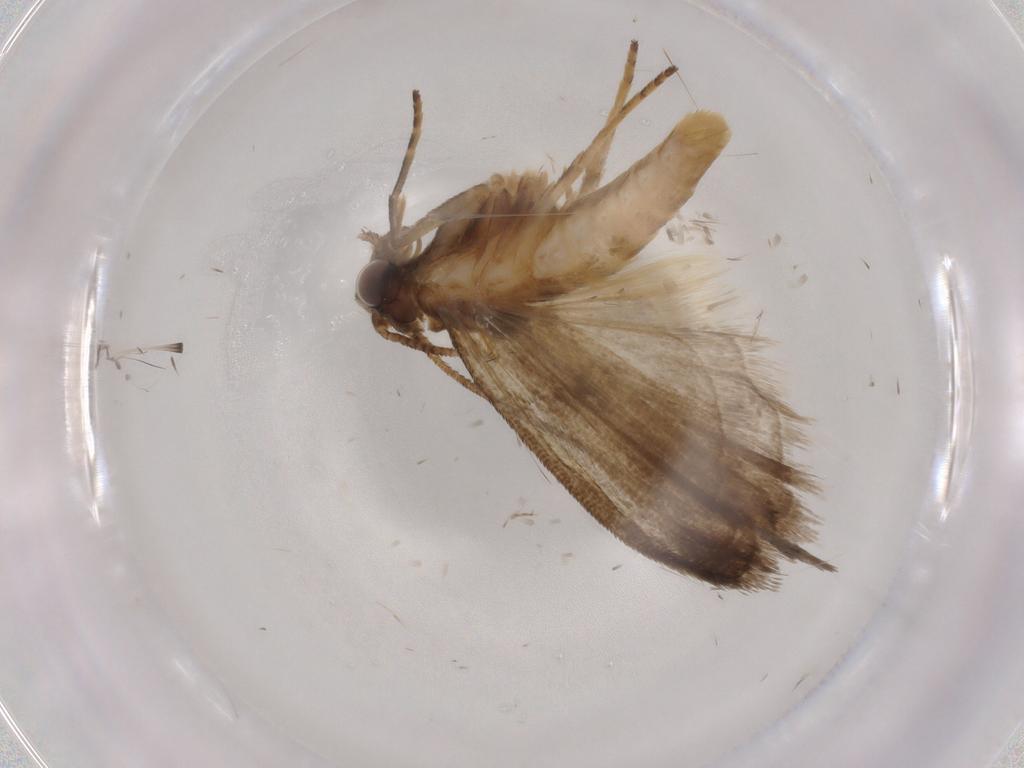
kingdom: Animalia
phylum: Arthropoda
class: Insecta
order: Lepidoptera
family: Noctuidae
